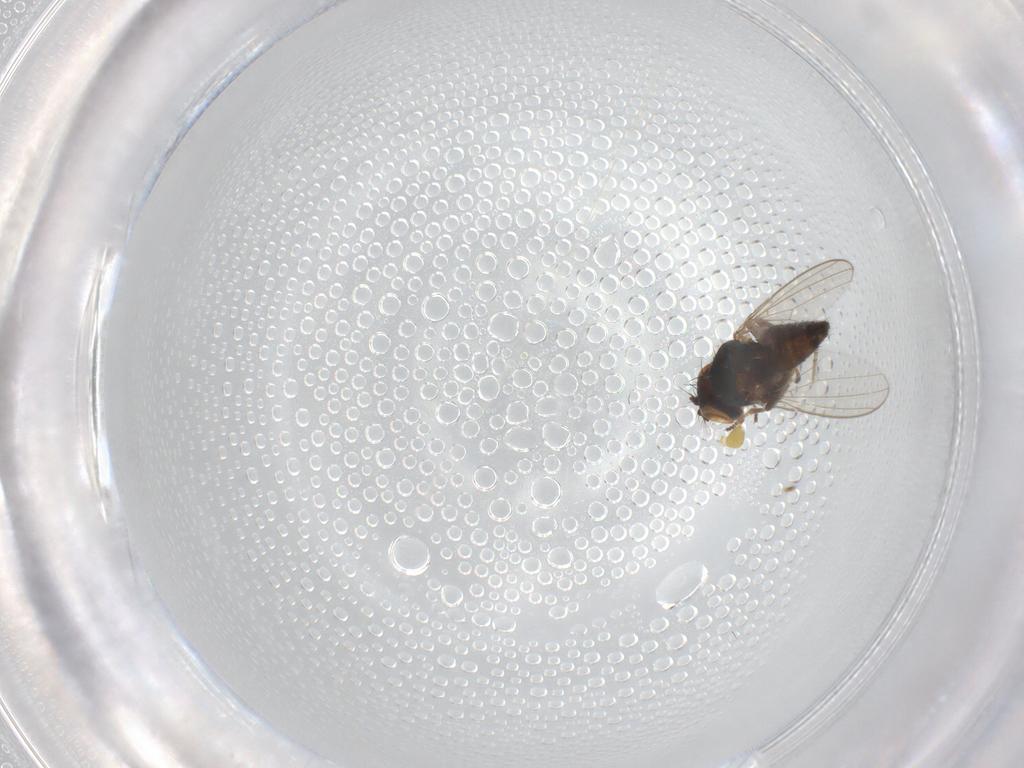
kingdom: Animalia
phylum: Arthropoda
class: Insecta
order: Diptera
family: Ephydridae
